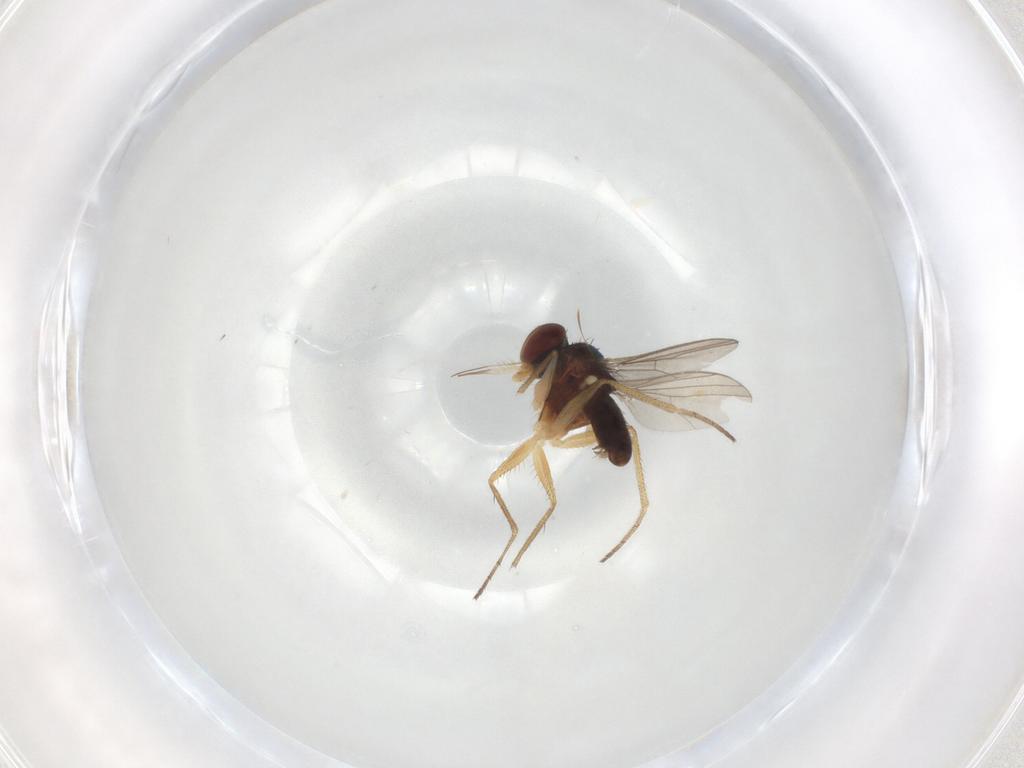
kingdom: Animalia
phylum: Arthropoda
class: Insecta
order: Diptera
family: Dolichopodidae
